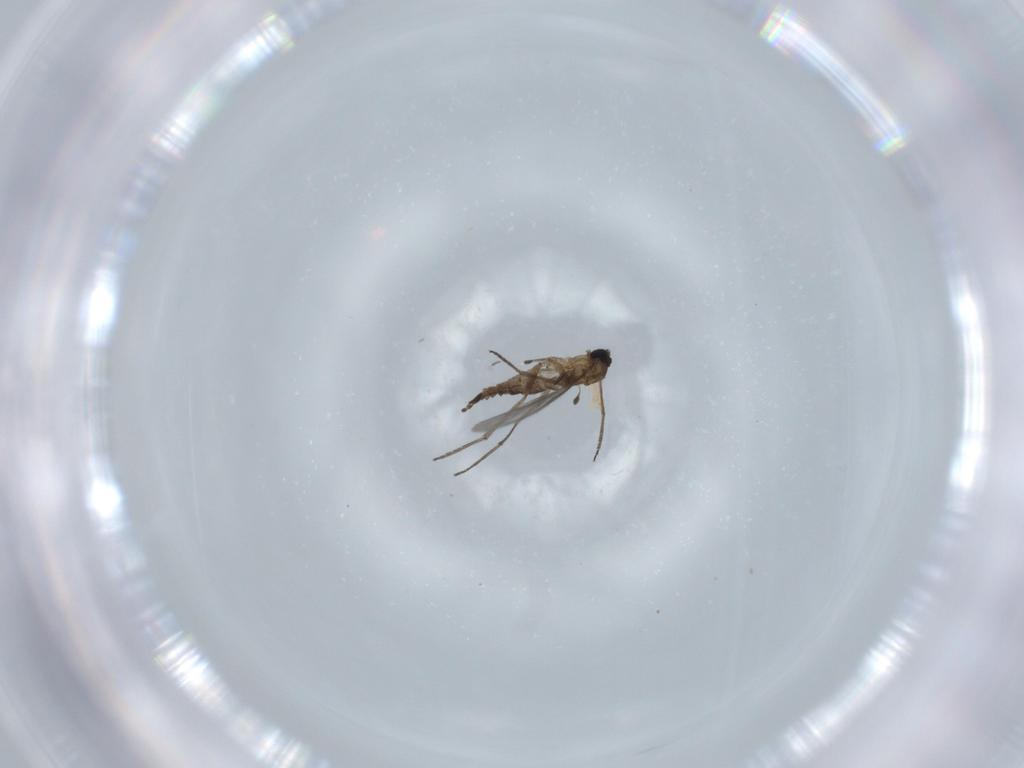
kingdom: Animalia
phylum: Arthropoda
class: Insecta
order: Diptera
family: Sciaridae
